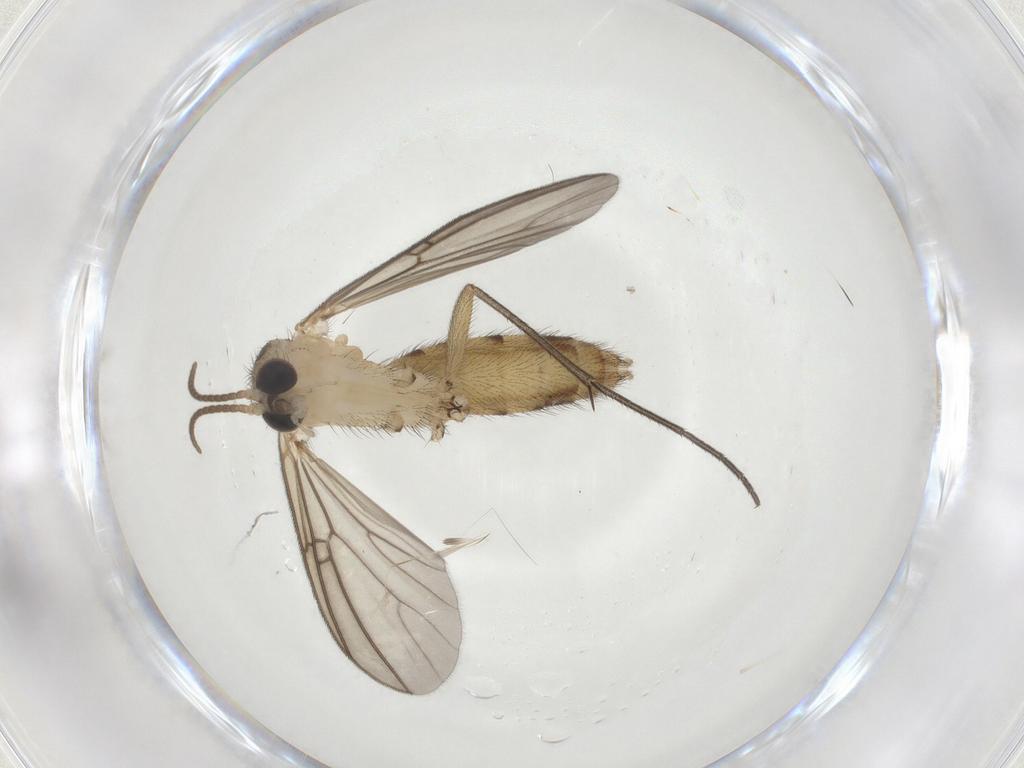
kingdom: Animalia
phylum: Arthropoda
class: Insecta
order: Diptera
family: Mycetophilidae
